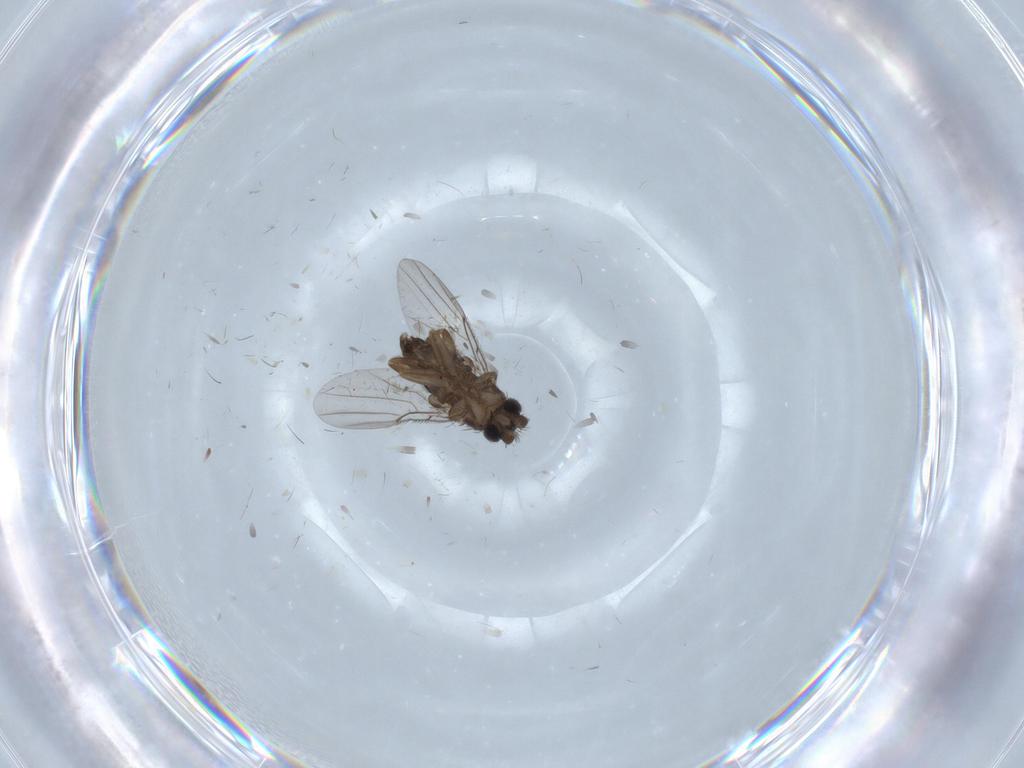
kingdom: Animalia
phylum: Arthropoda
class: Insecta
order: Diptera
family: Phoridae
